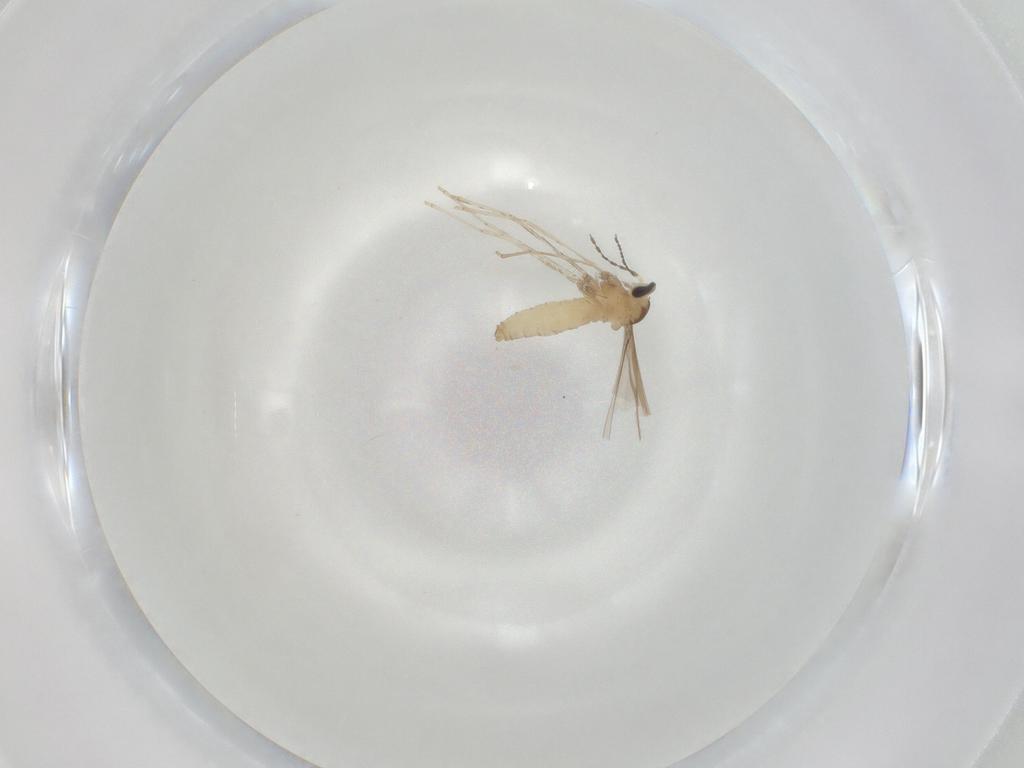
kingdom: Animalia
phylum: Arthropoda
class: Insecta
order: Diptera
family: Cecidomyiidae
